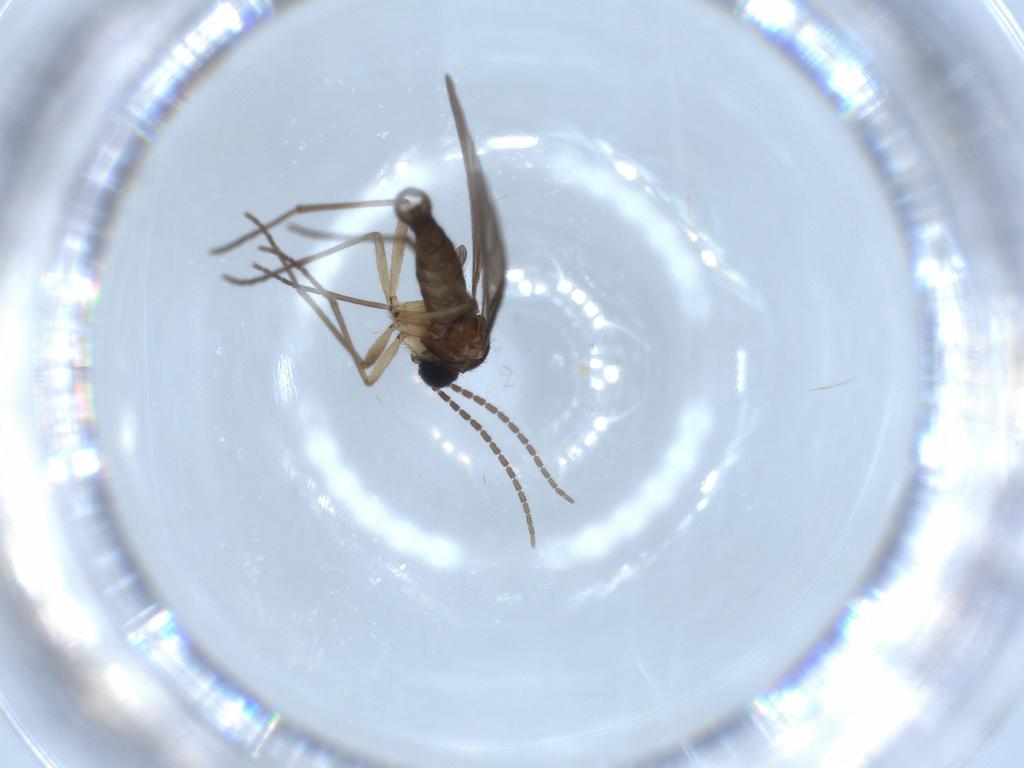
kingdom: Animalia
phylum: Arthropoda
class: Insecta
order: Diptera
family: Sciaridae
